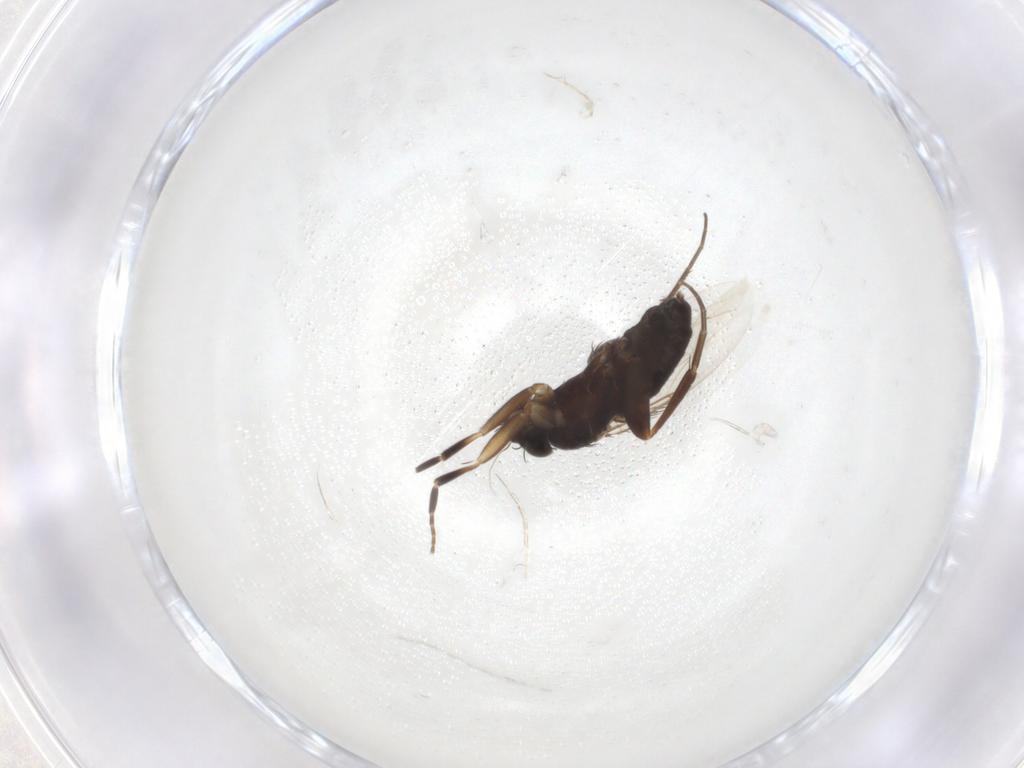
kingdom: Animalia
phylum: Arthropoda
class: Insecta
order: Diptera
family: Phoridae
